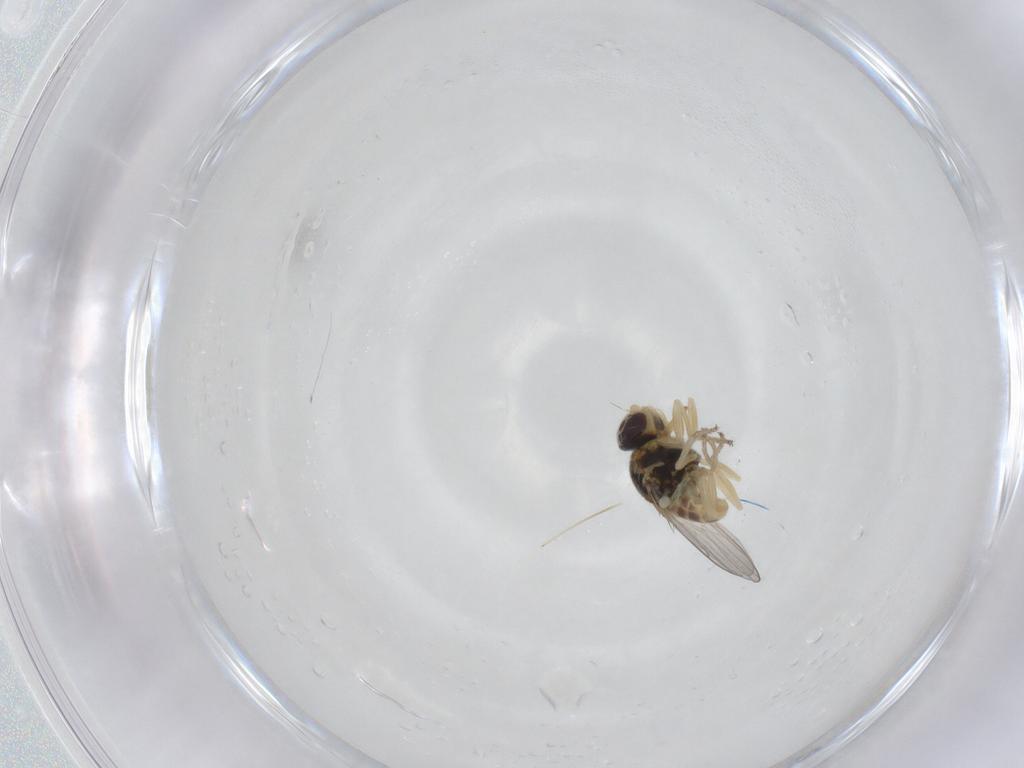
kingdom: Animalia
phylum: Arthropoda
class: Insecta
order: Diptera
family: Chloropidae
